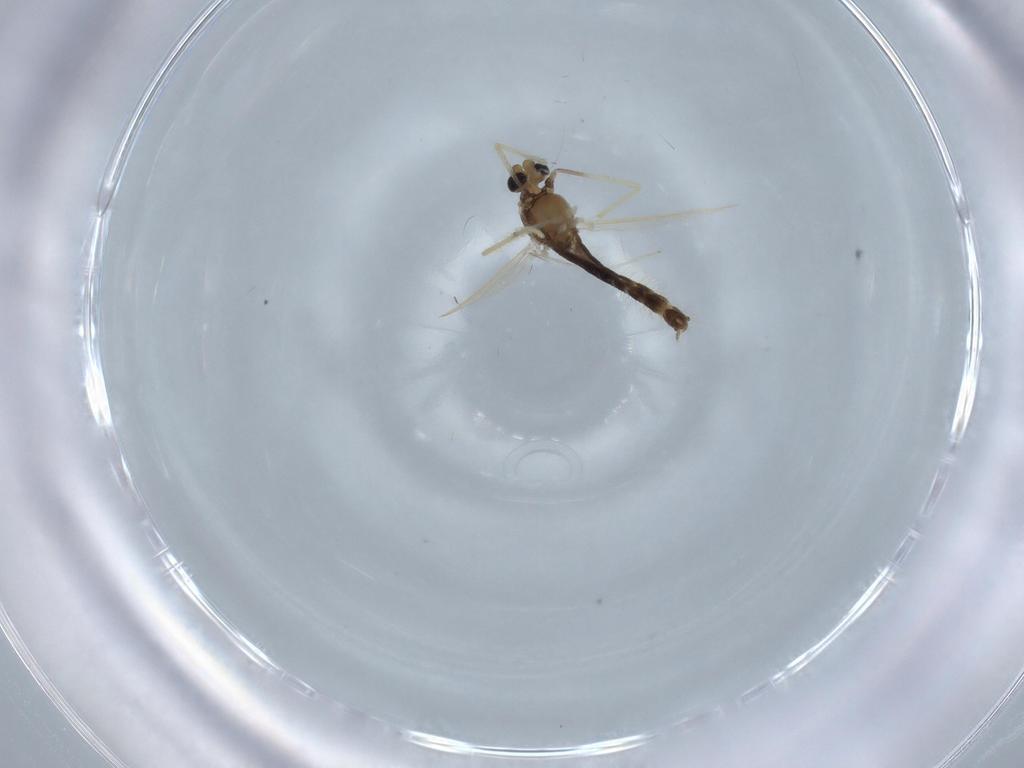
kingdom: Animalia
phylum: Arthropoda
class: Insecta
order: Diptera
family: Chironomidae
